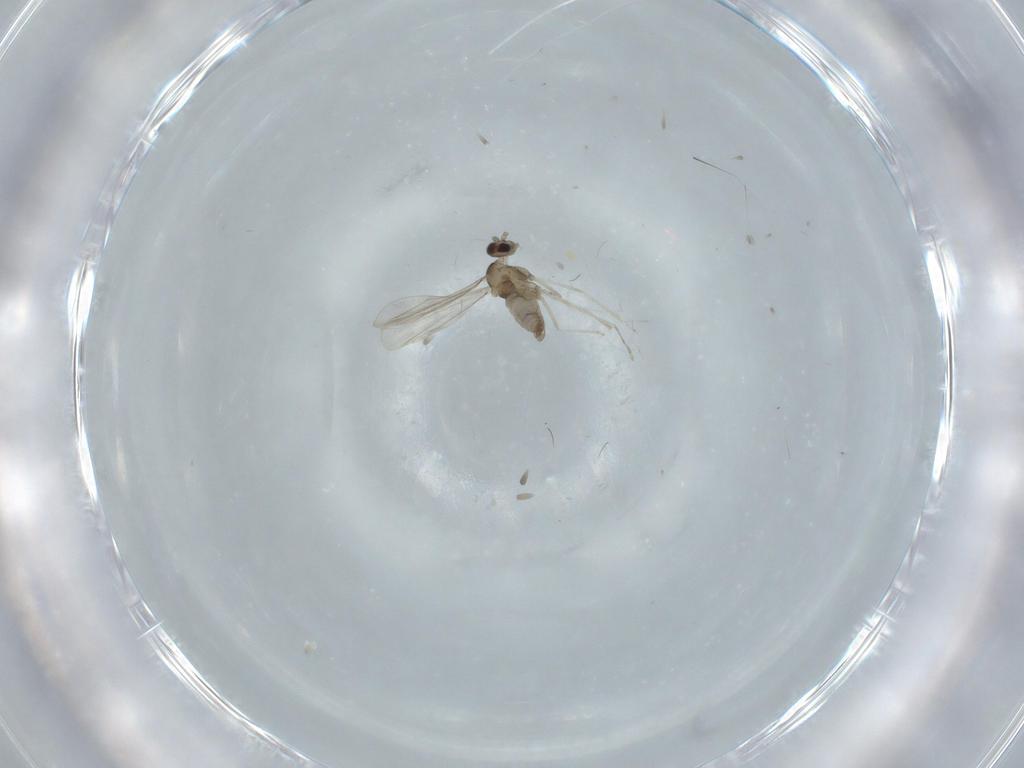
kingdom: Animalia
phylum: Arthropoda
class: Insecta
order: Diptera
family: Cecidomyiidae
